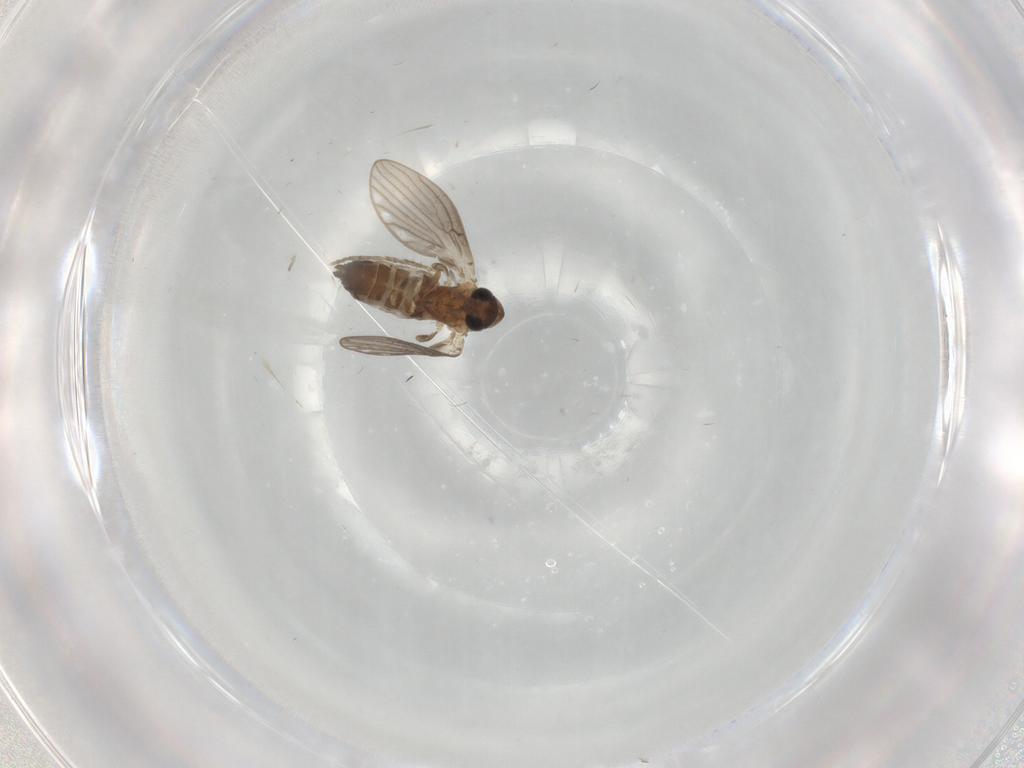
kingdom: Animalia
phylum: Arthropoda
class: Insecta
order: Diptera
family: Psychodidae
